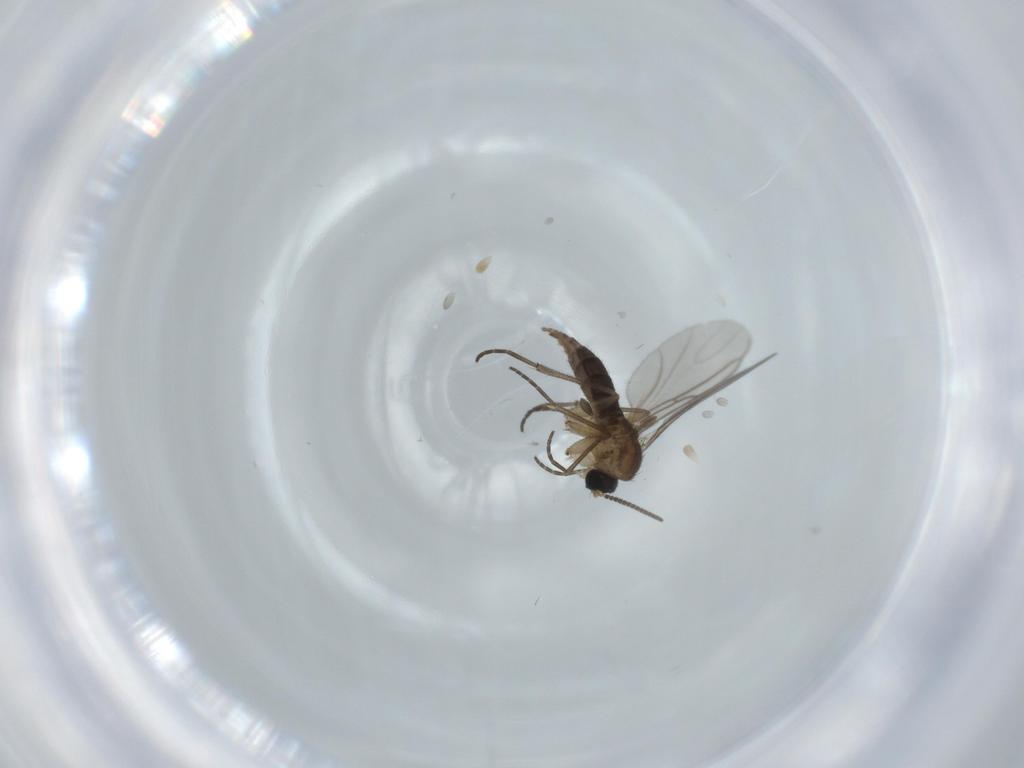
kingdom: Animalia
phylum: Arthropoda
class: Insecta
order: Diptera
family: Sciaridae
